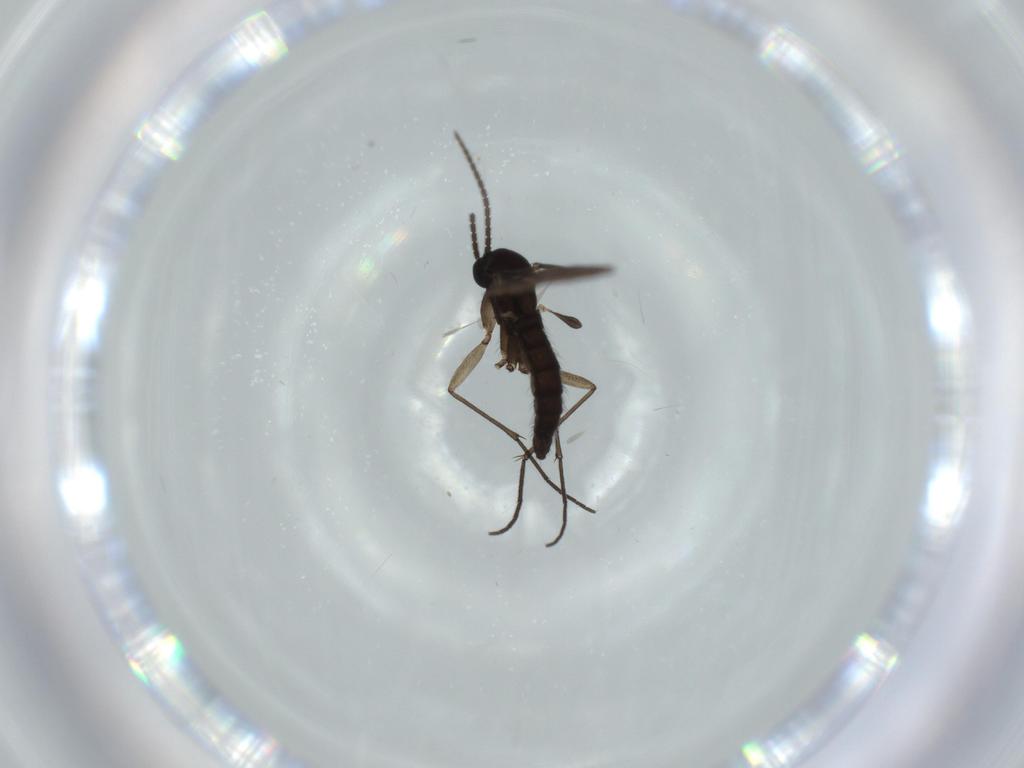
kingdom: Animalia
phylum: Arthropoda
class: Insecta
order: Diptera
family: Sciaridae
